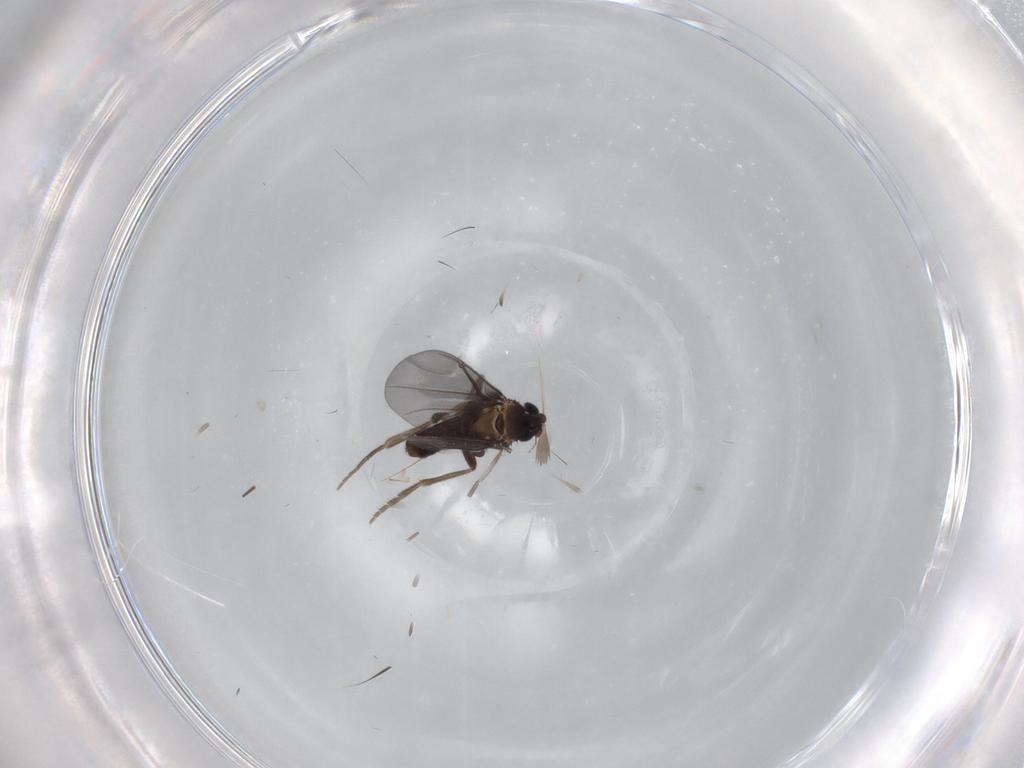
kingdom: Animalia
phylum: Arthropoda
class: Insecta
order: Diptera
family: Phoridae
